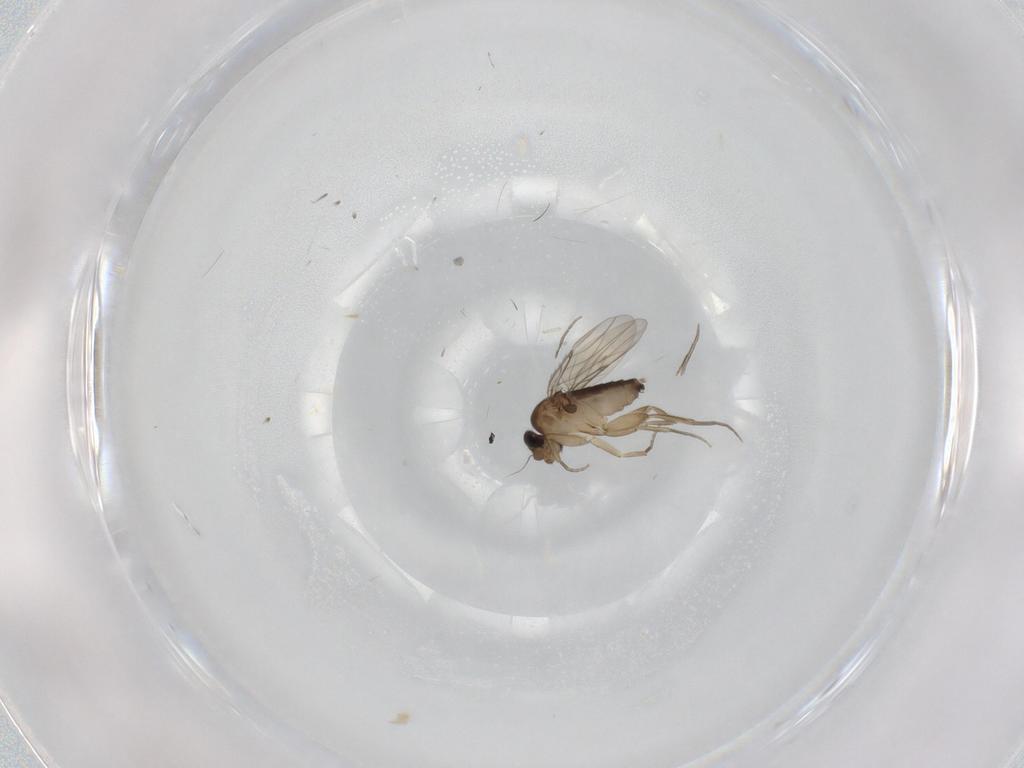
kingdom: Animalia
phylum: Arthropoda
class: Insecta
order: Diptera
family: Phoridae
